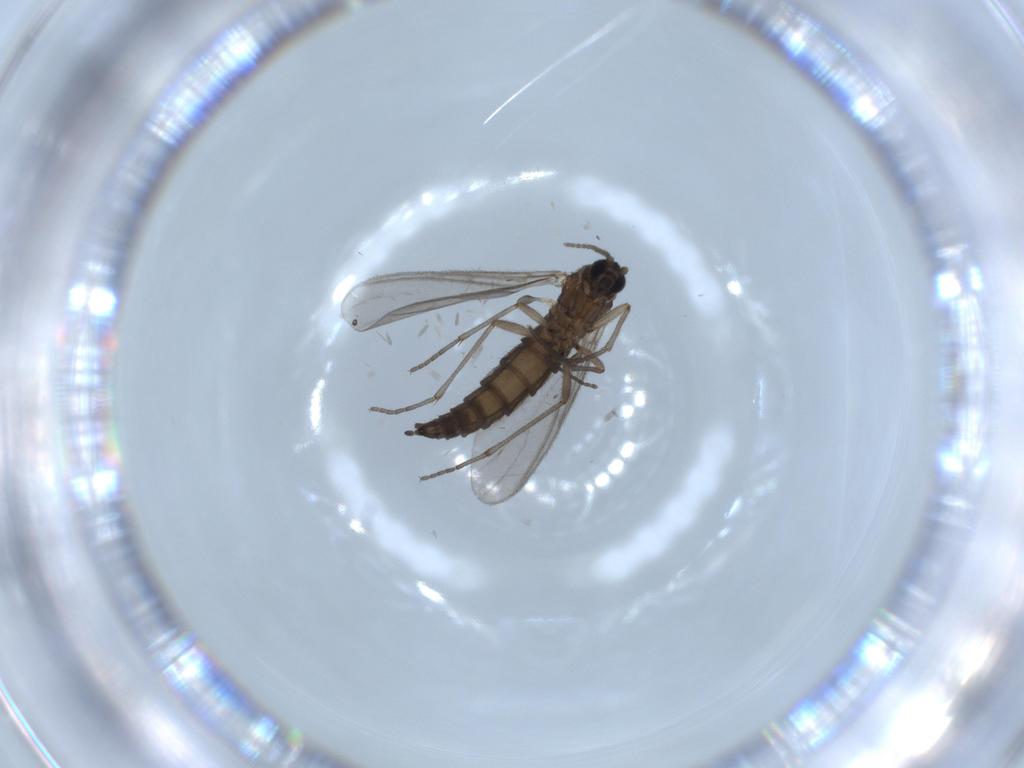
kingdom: Animalia
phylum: Arthropoda
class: Insecta
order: Diptera
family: Sciaridae
